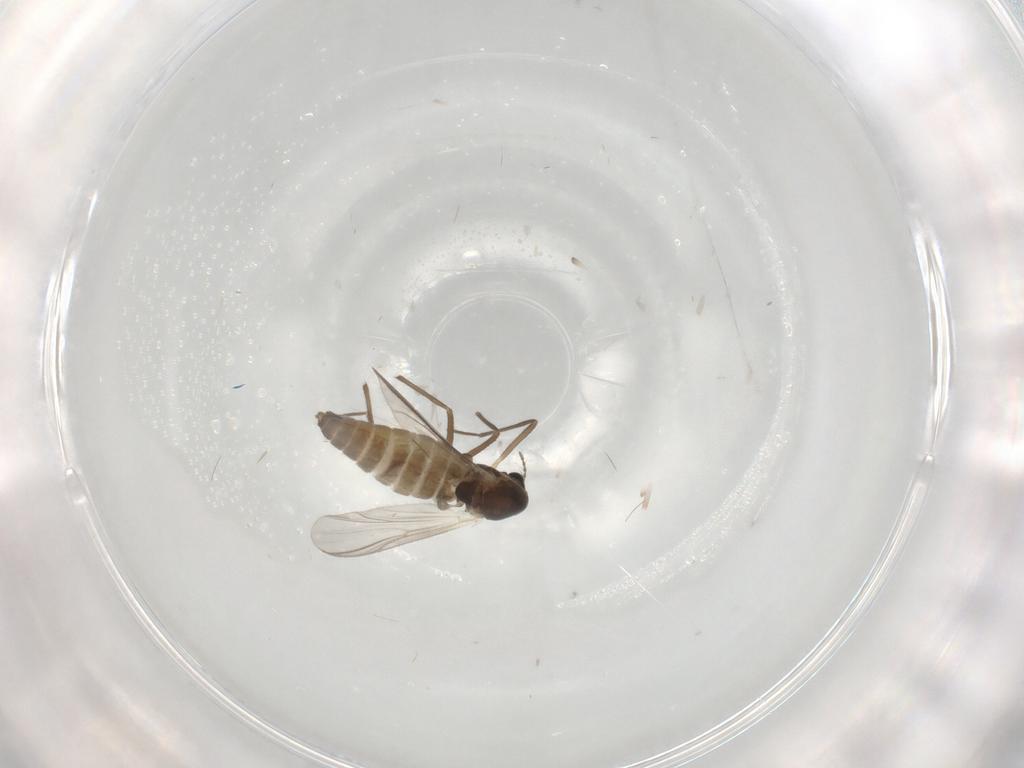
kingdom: Animalia
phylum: Arthropoda
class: Insecta
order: Diptera
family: Chironomidae
